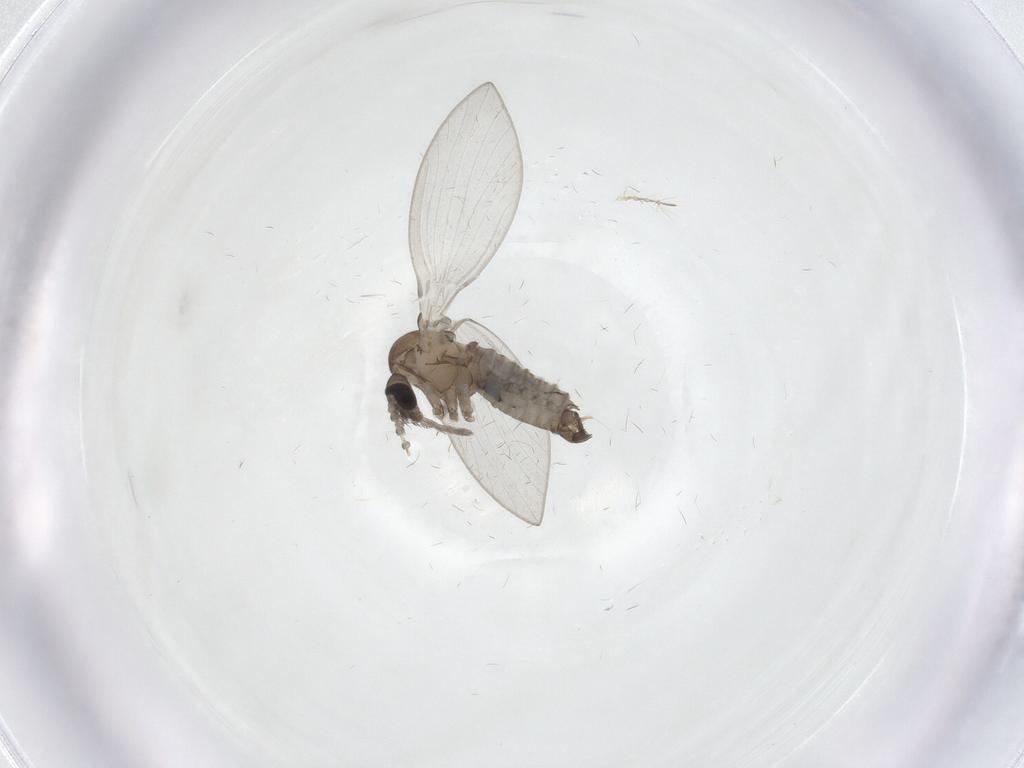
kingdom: Animalia
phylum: Arthropoda
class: Insecta
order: Diptera
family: Psychodidae
